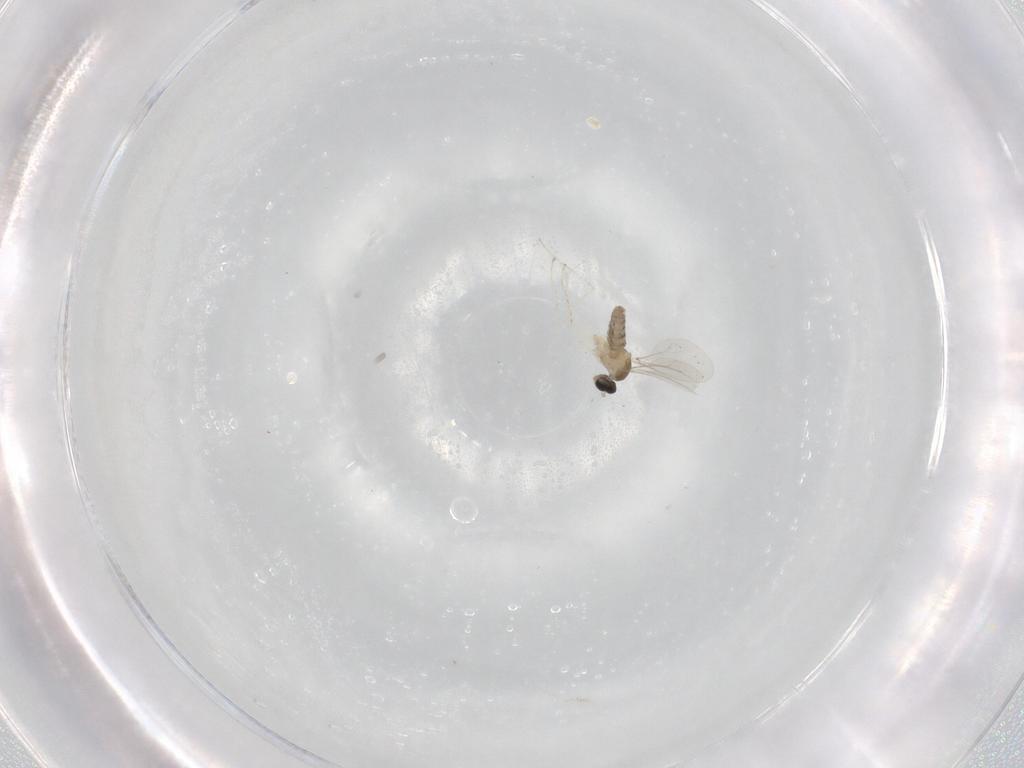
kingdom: Animalia
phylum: Arthropoda
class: Insecta
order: Diptera
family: Cecidomyiidae
